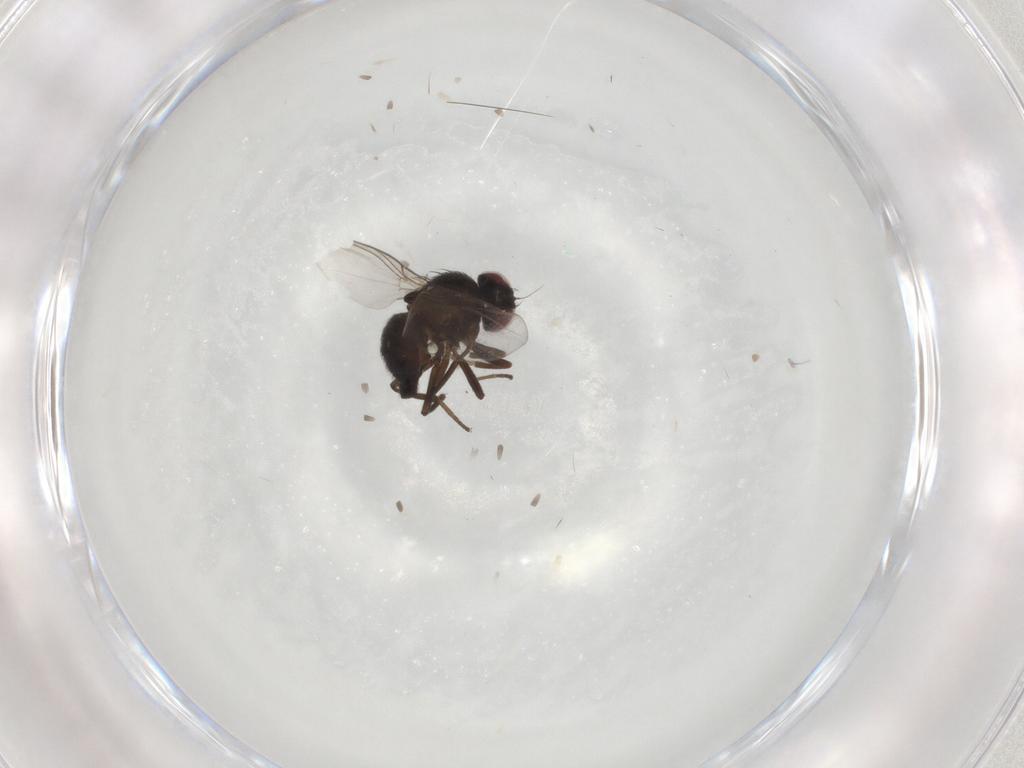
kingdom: Animalia
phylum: Arthropoda
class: Insecta
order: Diptera
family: Agromyzidae
